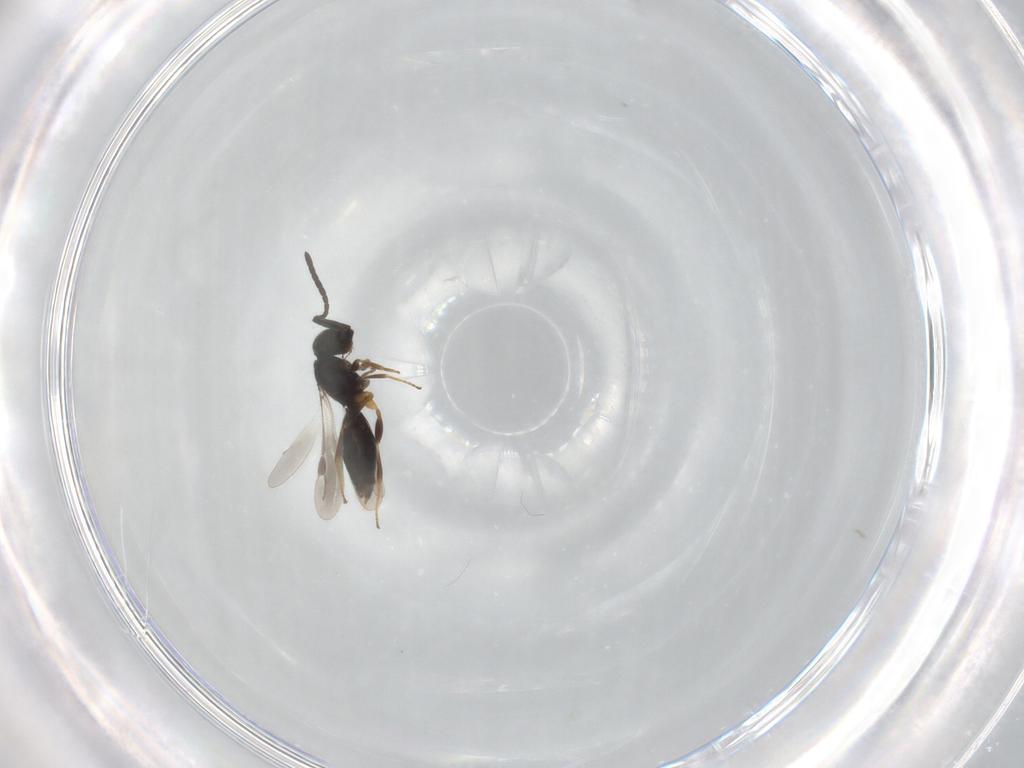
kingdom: Animalia
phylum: Arthropoda
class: Insecta
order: Hymenoptera
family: Megaspilidae
